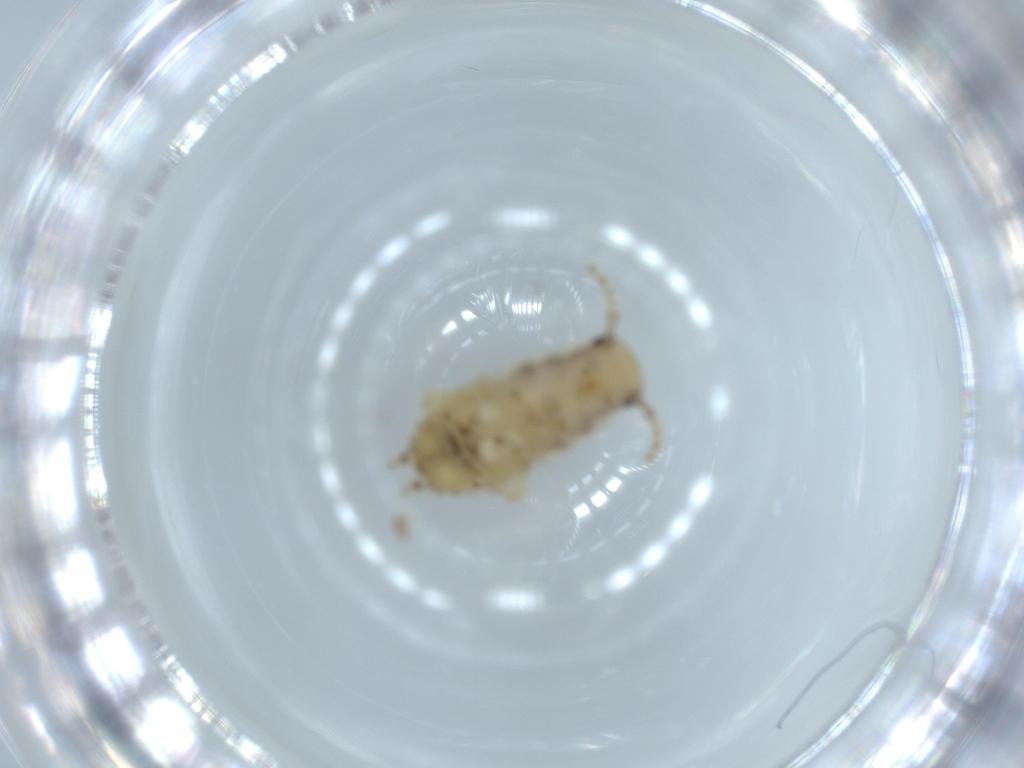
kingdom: Animalia
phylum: Arthropoda
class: Insecta
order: Blattodea
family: Ectobiidae
